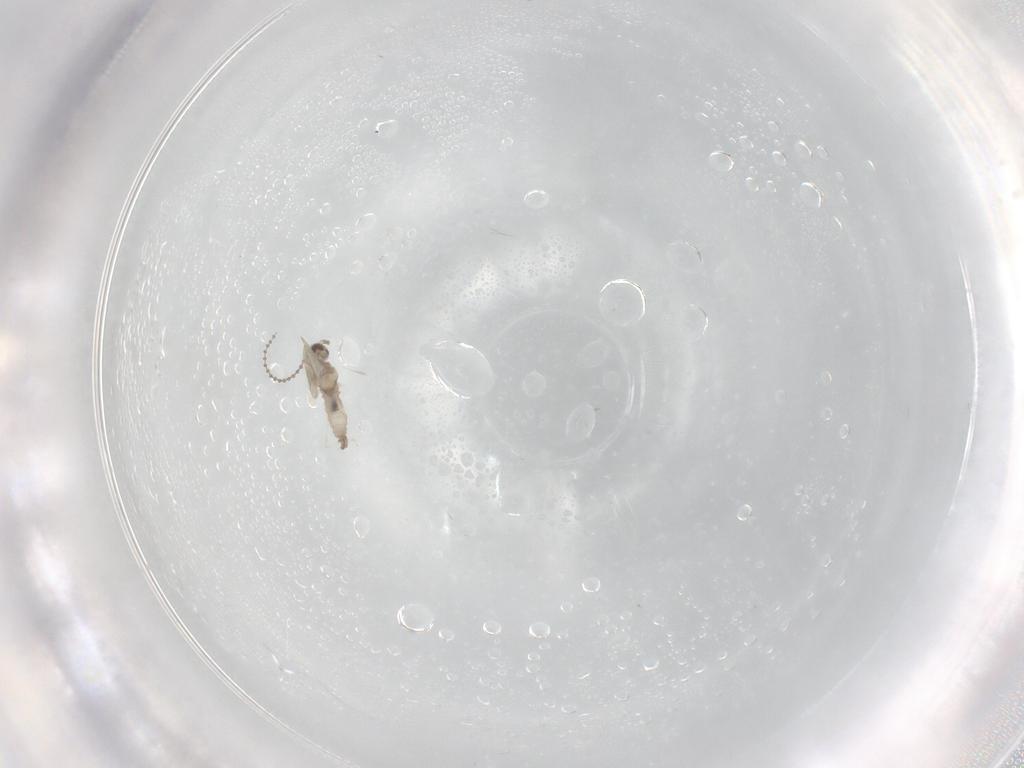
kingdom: Animalia
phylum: Arthropoda
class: Insecta
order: Diptera
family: Cecidomyiidae
